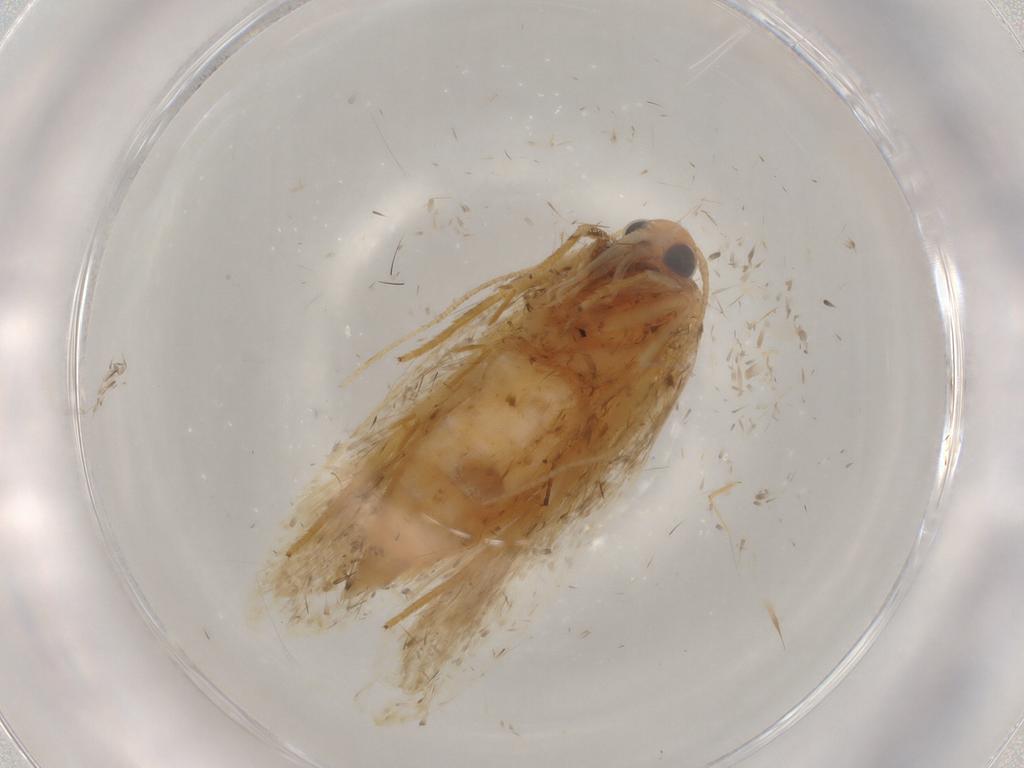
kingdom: Animalia
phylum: Arthropoda
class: Insecta
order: Lepidoptera
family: Depressariidae
